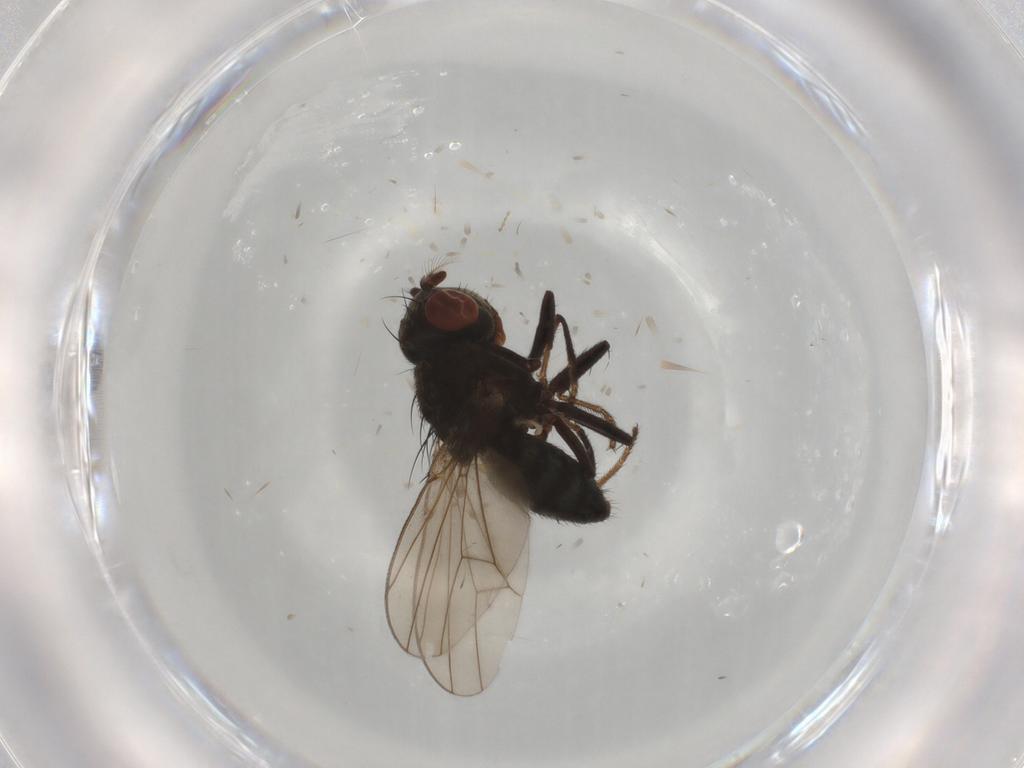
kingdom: Animalia
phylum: Arthropoda
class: Insecta
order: Diptera
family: Ephydridae
